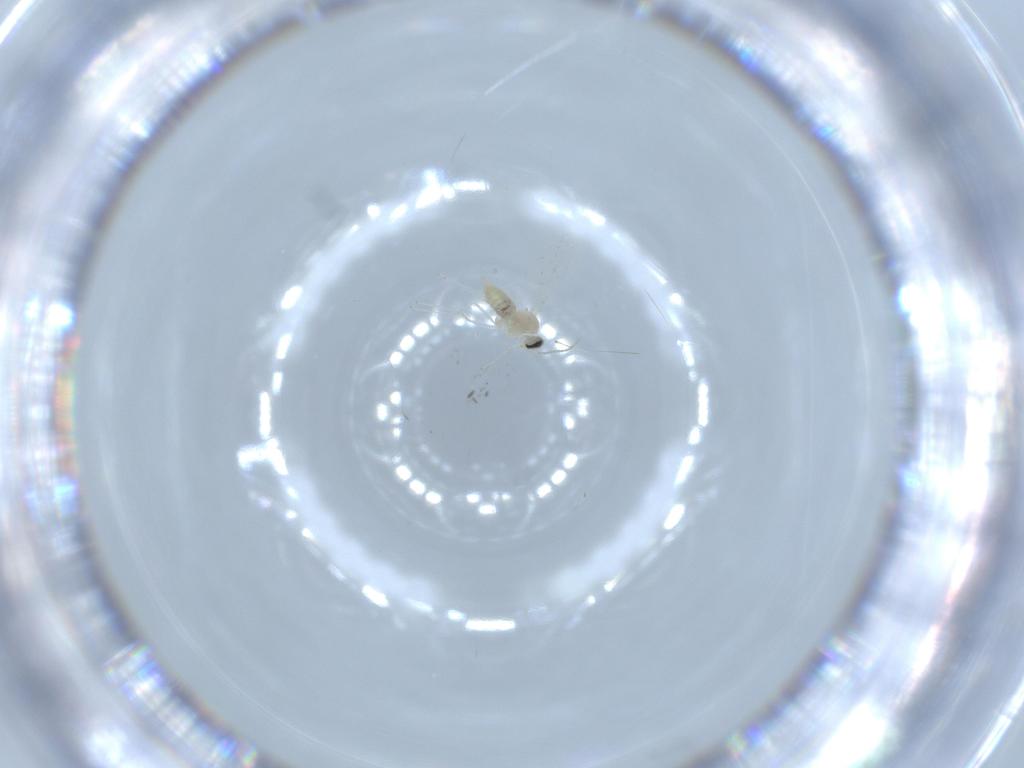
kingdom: Animalia
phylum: Arthropoda
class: Insecta
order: Diptera
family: Cecidomyiidae
